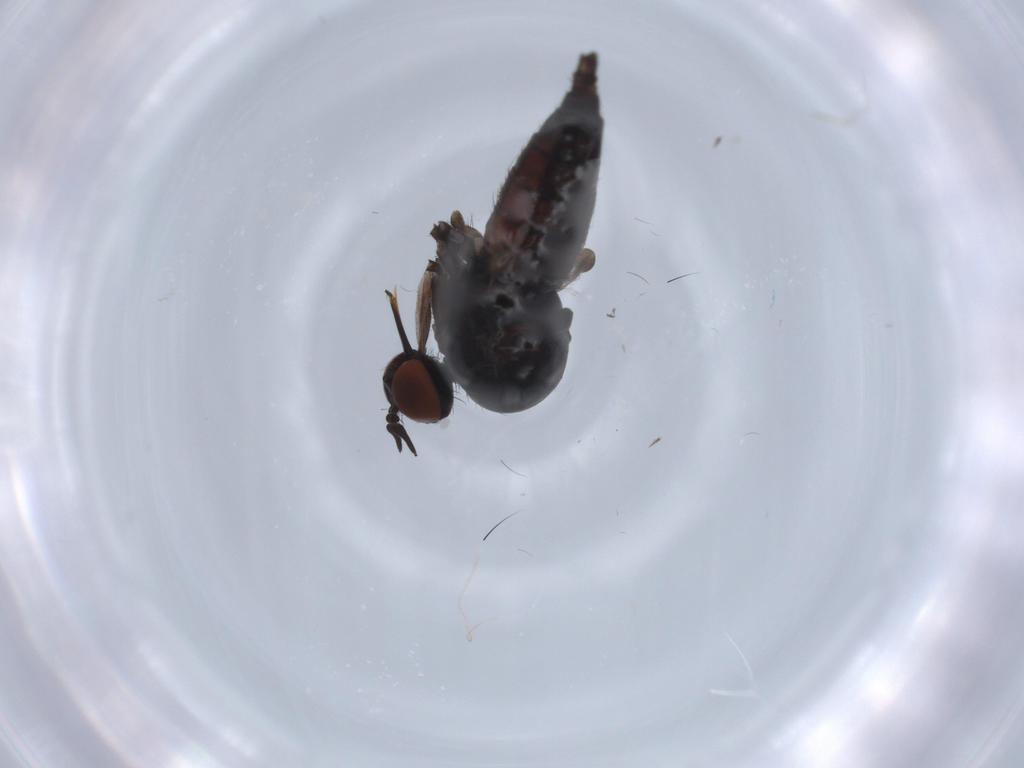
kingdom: Animalia
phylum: Arthropoda
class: Insecta
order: Diptera
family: Empididae
